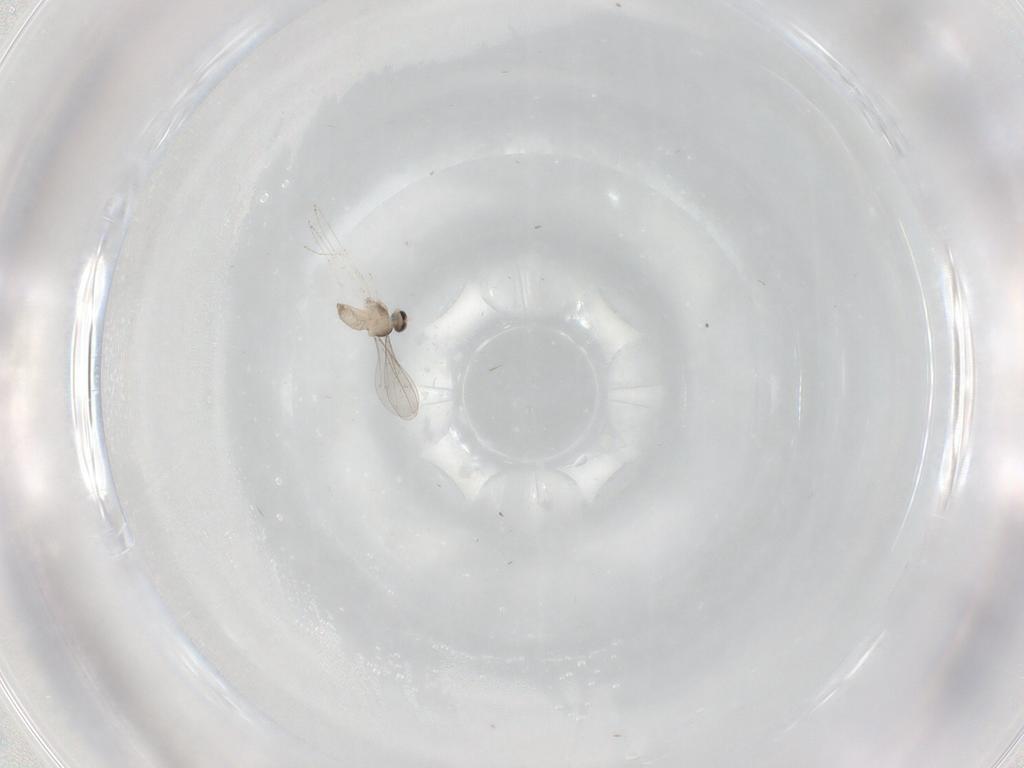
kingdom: Animalia
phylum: Arthropoda
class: Insecta
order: Diptera
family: Cecidomyiidae
